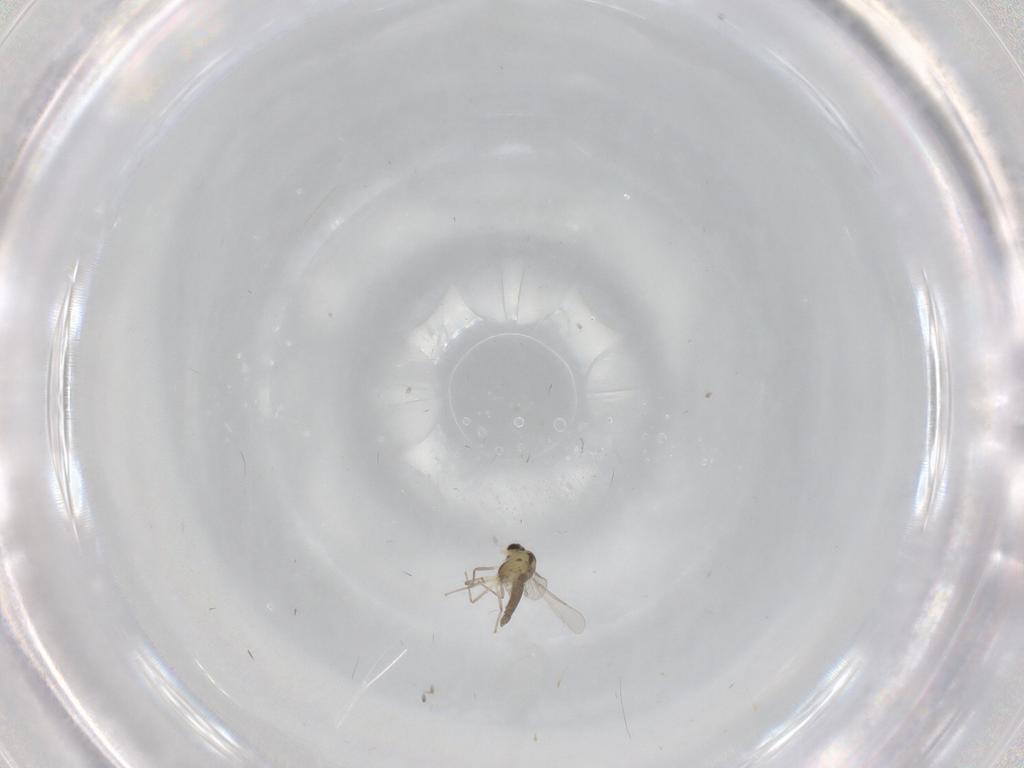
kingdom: Animalia
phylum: Arthropoda
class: Insecta
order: Diptera
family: Chironomidae
